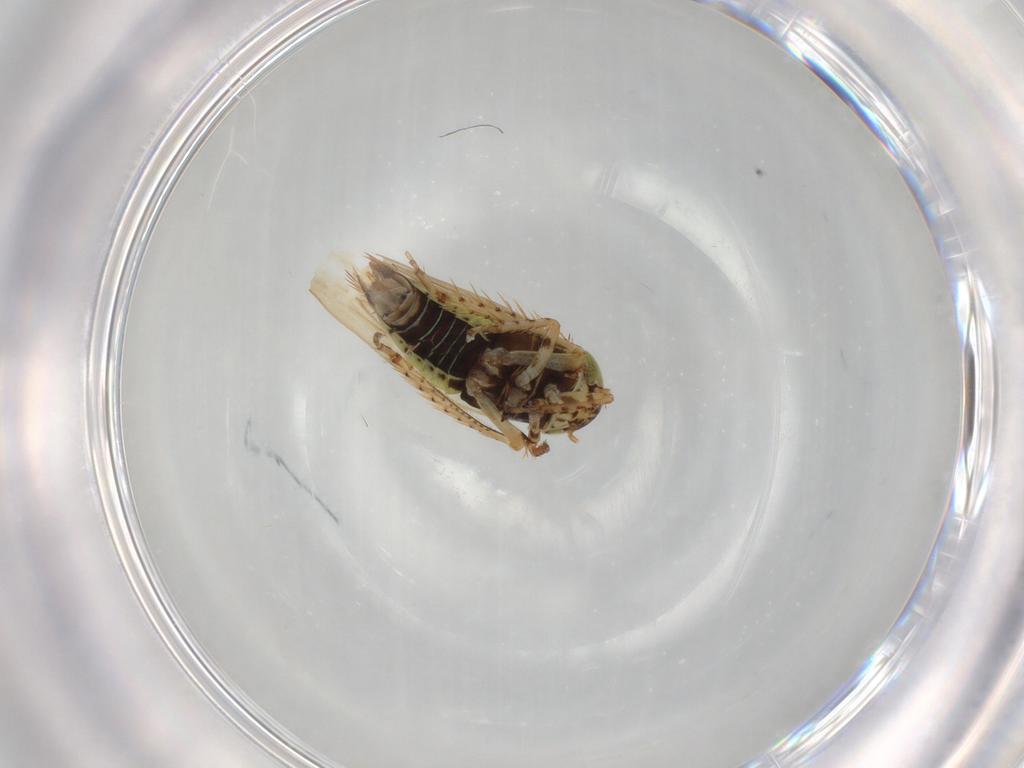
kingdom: Animalia
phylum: Arthropoda
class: Insecta
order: Hemiptera
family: Cicadellidae
